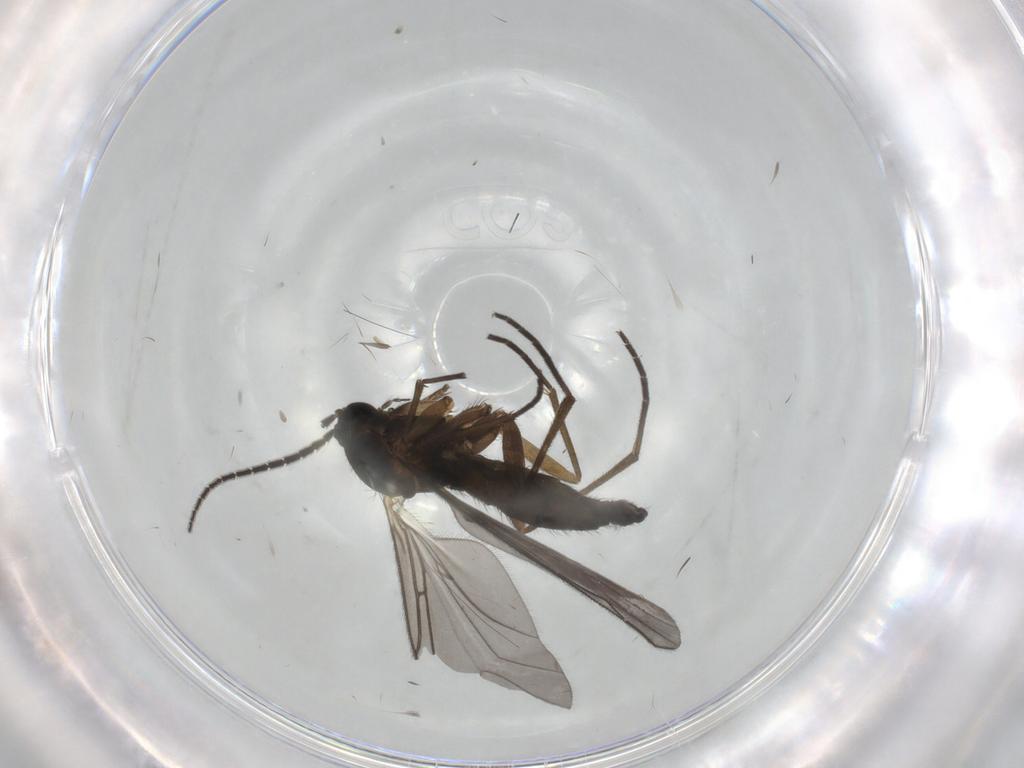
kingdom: Animalia
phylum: Arthropoda
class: Insecta
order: Diptera
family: Sciaridae
